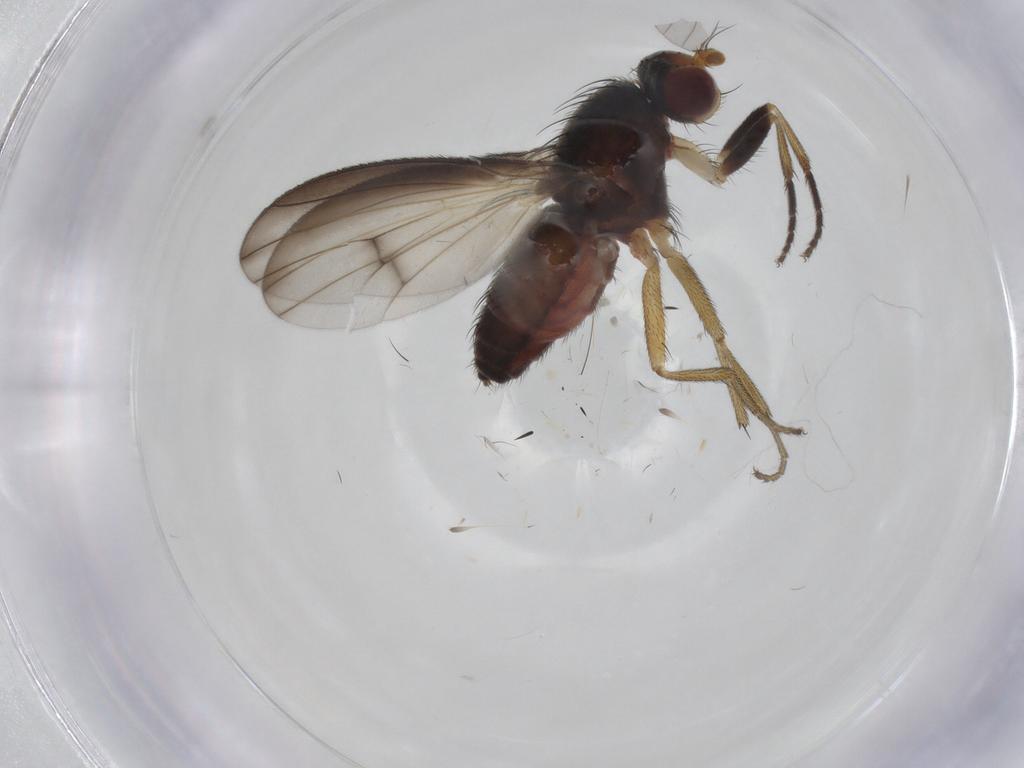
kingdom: Animalia
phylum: Arthropoda
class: Insecta
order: Diptera
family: Heleomyzidae
